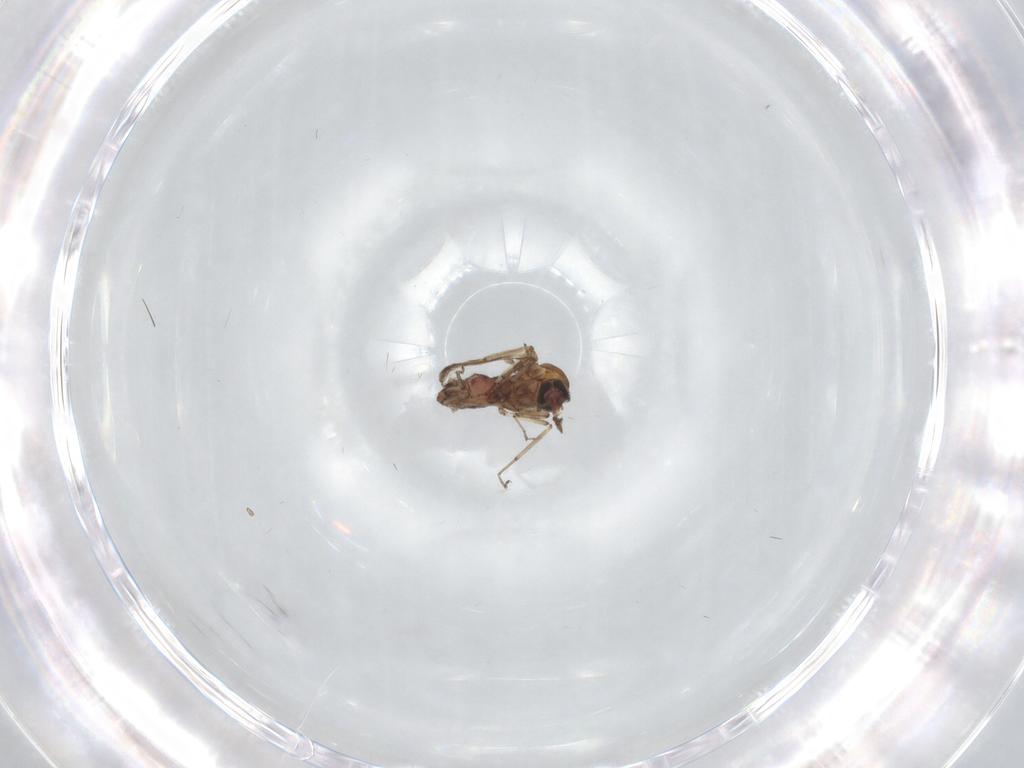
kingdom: Animalia
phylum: Arthropoda
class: Insecta
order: Diptera
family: Ceratopogonidae
